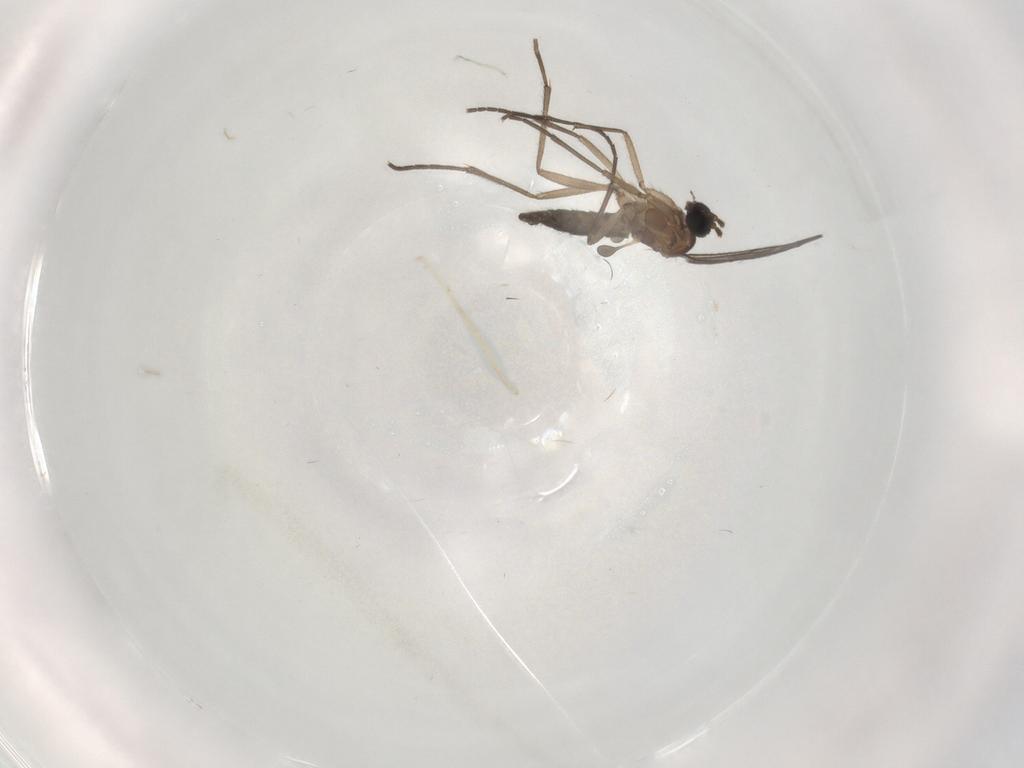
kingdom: Animalia
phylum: Arthropoda
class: Insecta
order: Diptera
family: Sciaridae
